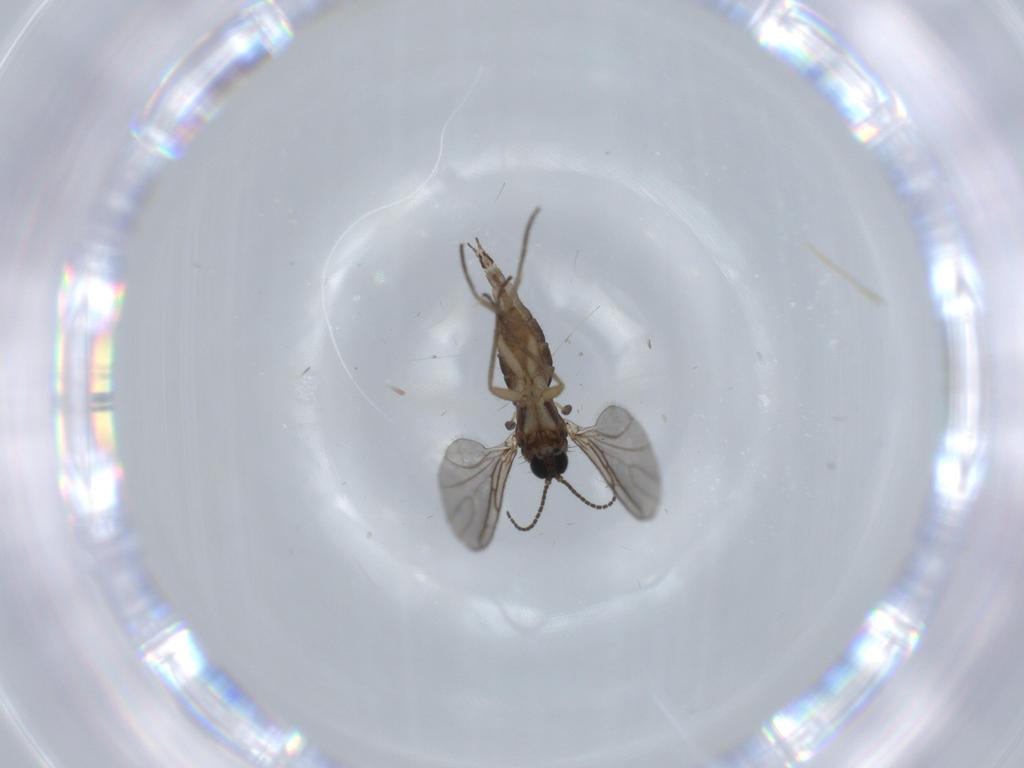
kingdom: Animalia
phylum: Arthropoda
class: Insecta
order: Diptera
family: Sciaridae
